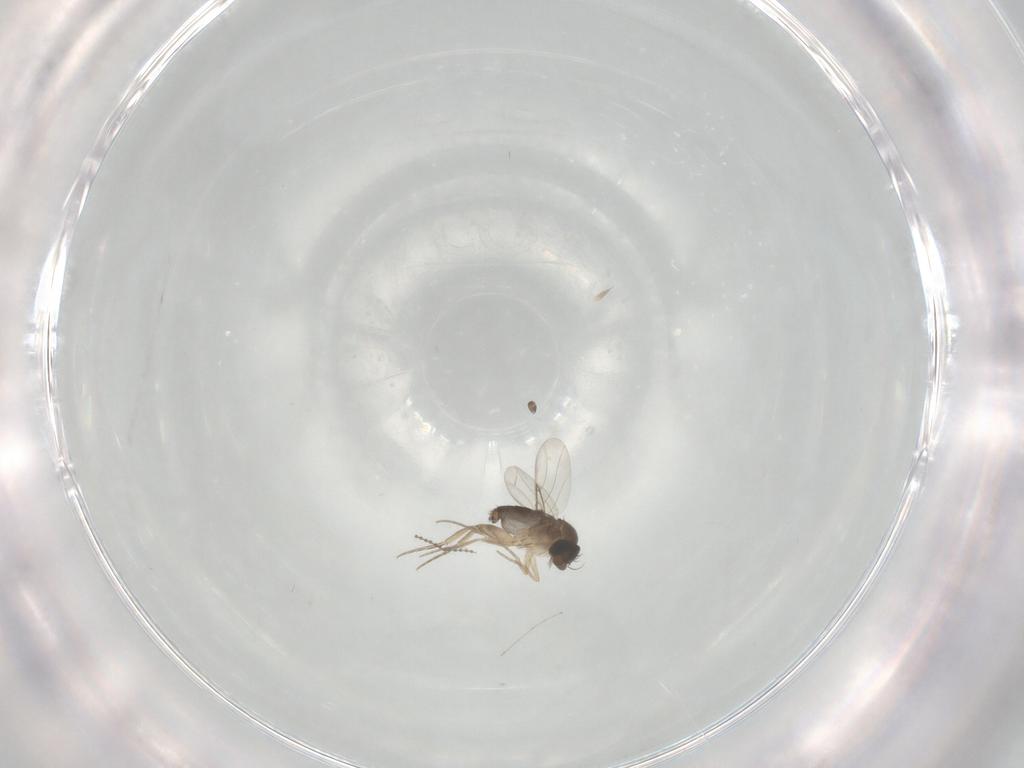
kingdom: Animalia
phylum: Arthropoda
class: Insecta
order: Diptera
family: Phoridae
